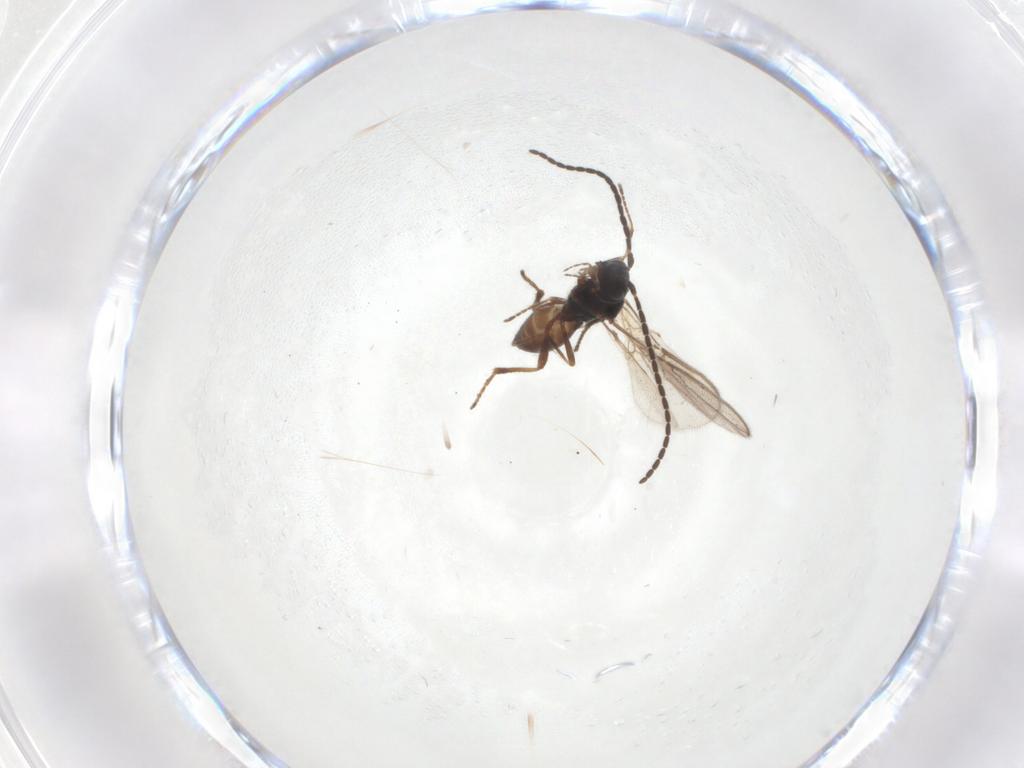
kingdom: Animalia
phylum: Arthropoda
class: Insecta
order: Hymenoptera
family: Braconidae
